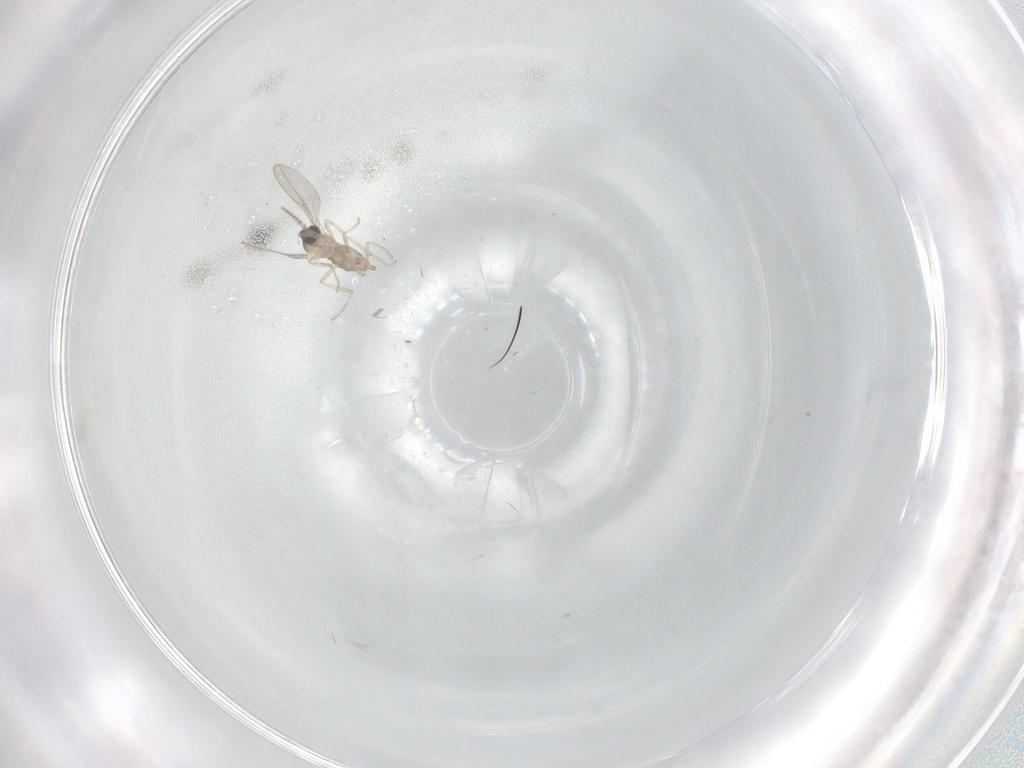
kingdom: Animalia
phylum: Arthropoda
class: Insecta
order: Diptera
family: Cecidomyiidae
